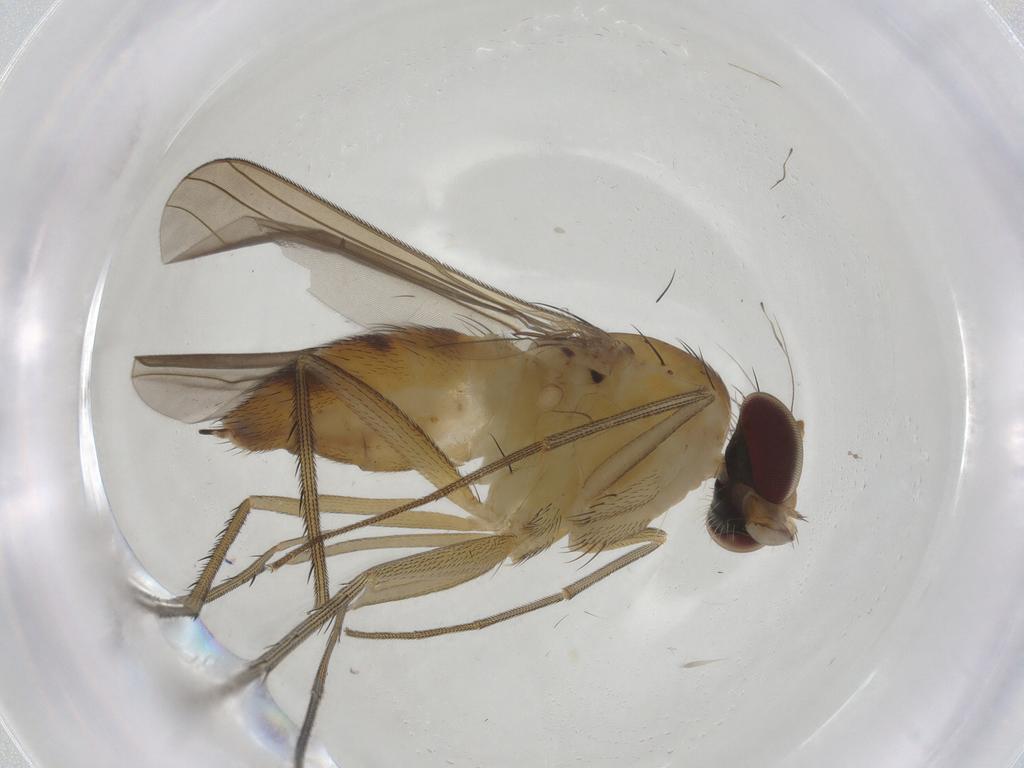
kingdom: Animalia
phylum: Arthropoda
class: Insecta
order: Diptera
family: Dolichopodidae
